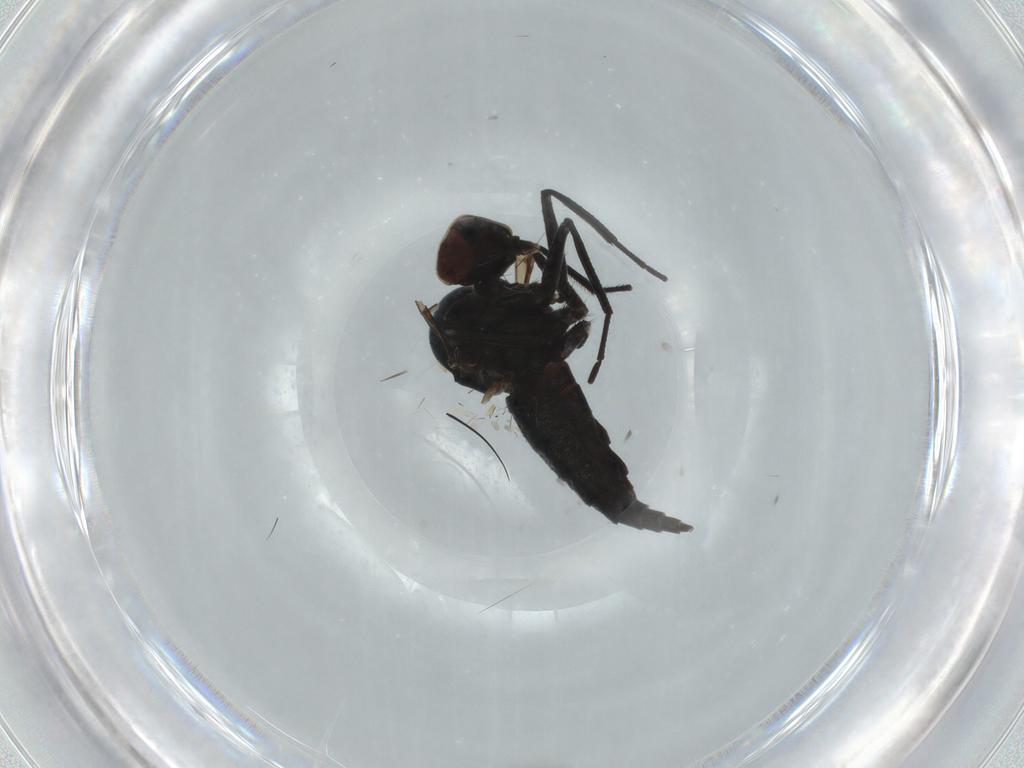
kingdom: Animalia
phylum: Arthropoda
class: Insecta
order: Diptera
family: Hybotidae
